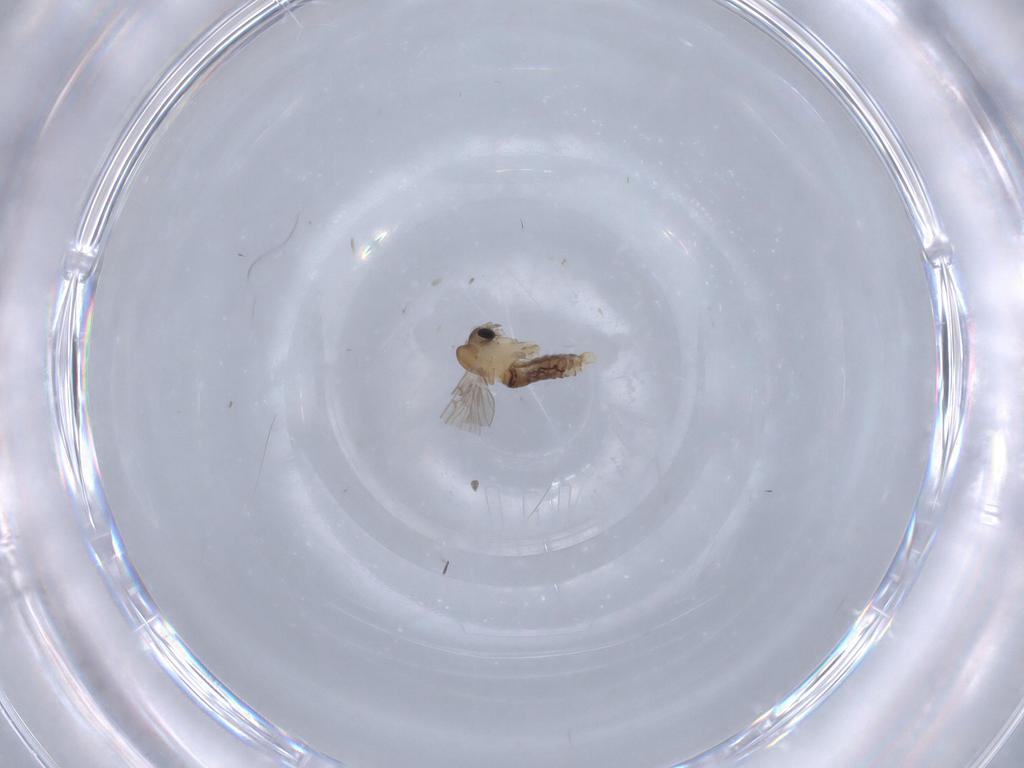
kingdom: Animalia
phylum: Arthropoda
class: Insecta
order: Diptera
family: Psychodidae
